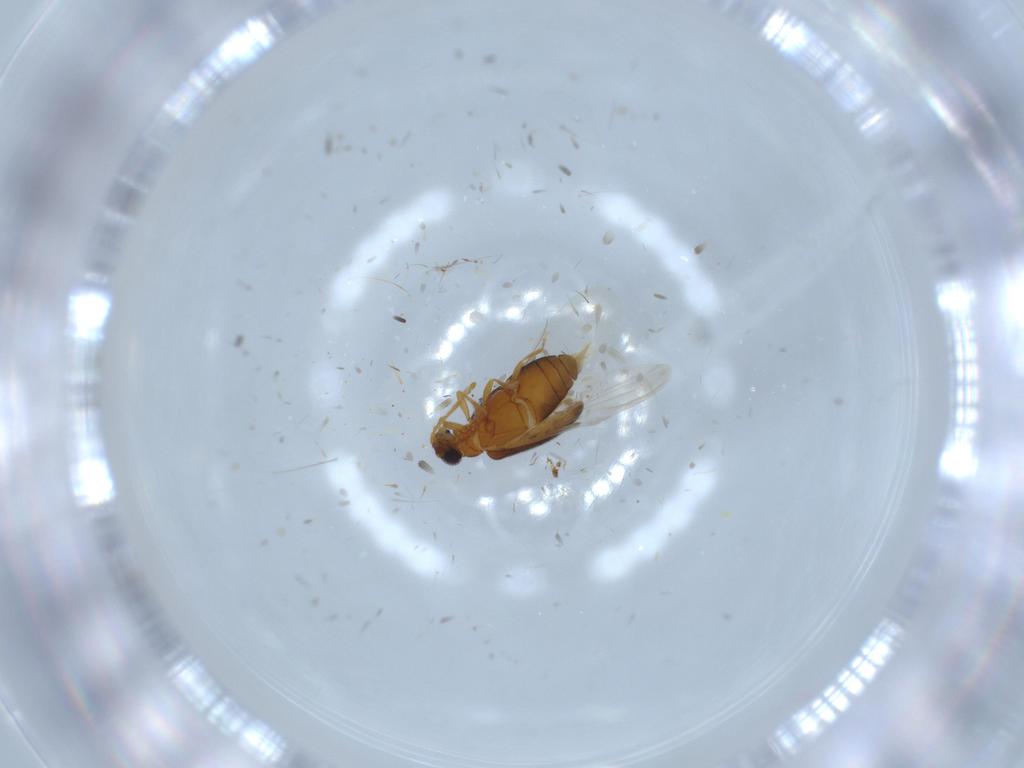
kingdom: Animalia
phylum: Arthropoda
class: Insecta
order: Coleoptera
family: Aderidae
